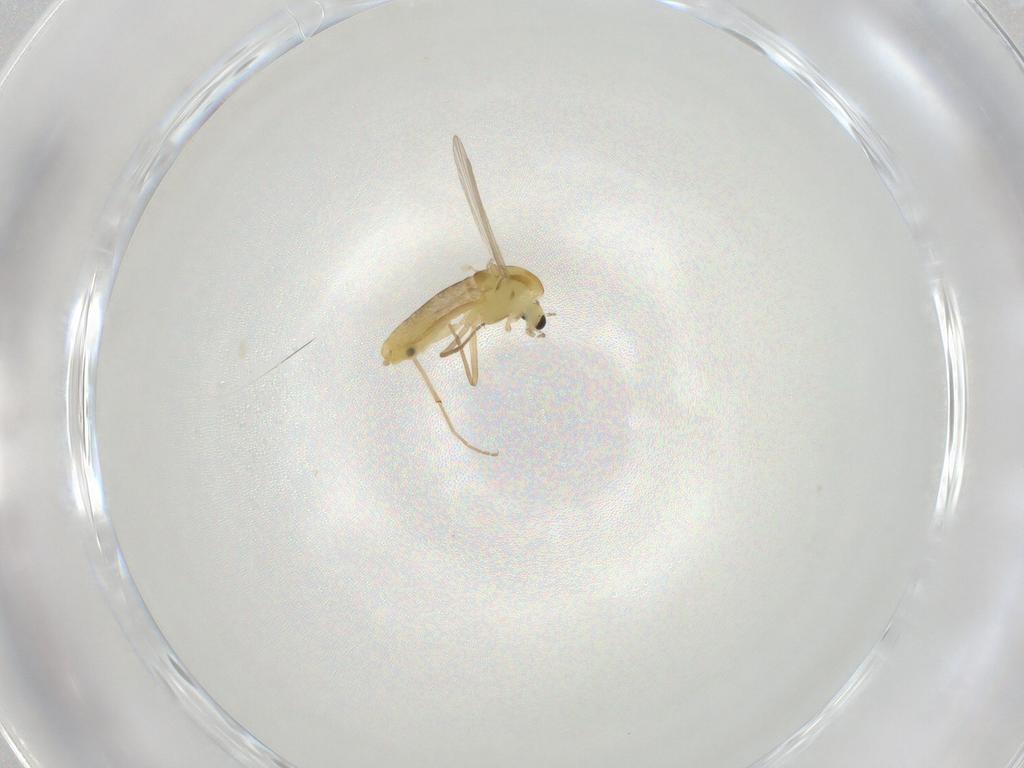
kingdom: Animalia
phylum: Arthropoda
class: Insecta
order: Diptera
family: Chironomidae
